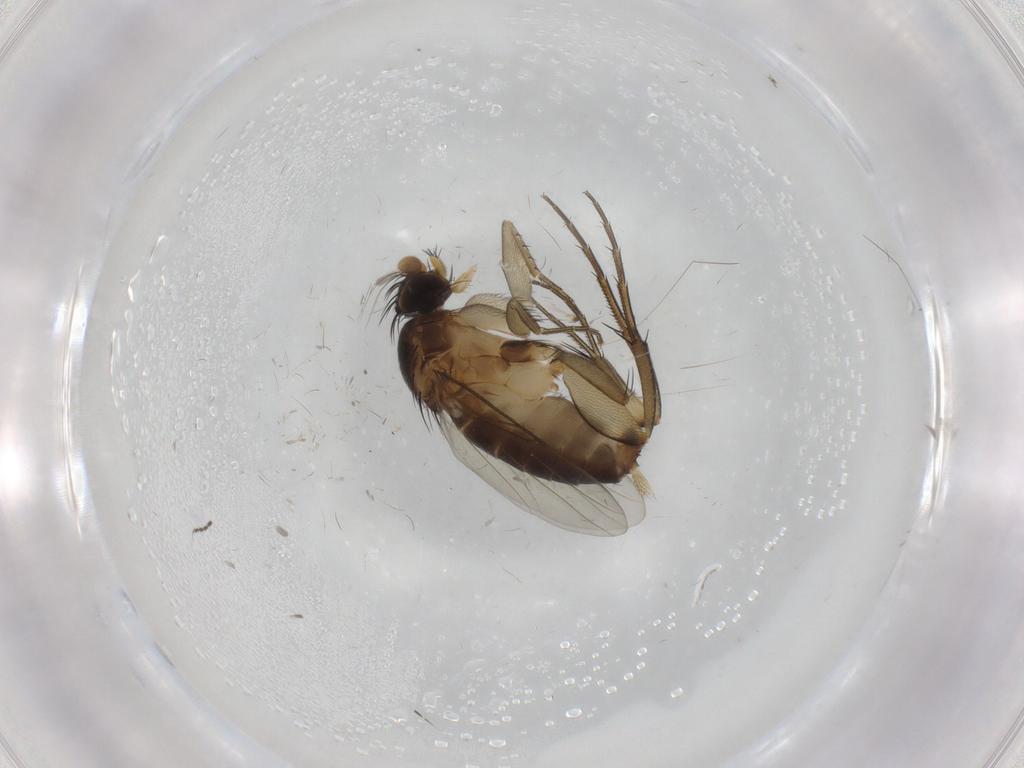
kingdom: Animalia
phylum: Arthropoda
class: Insecta
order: Diptera
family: Phoridae
